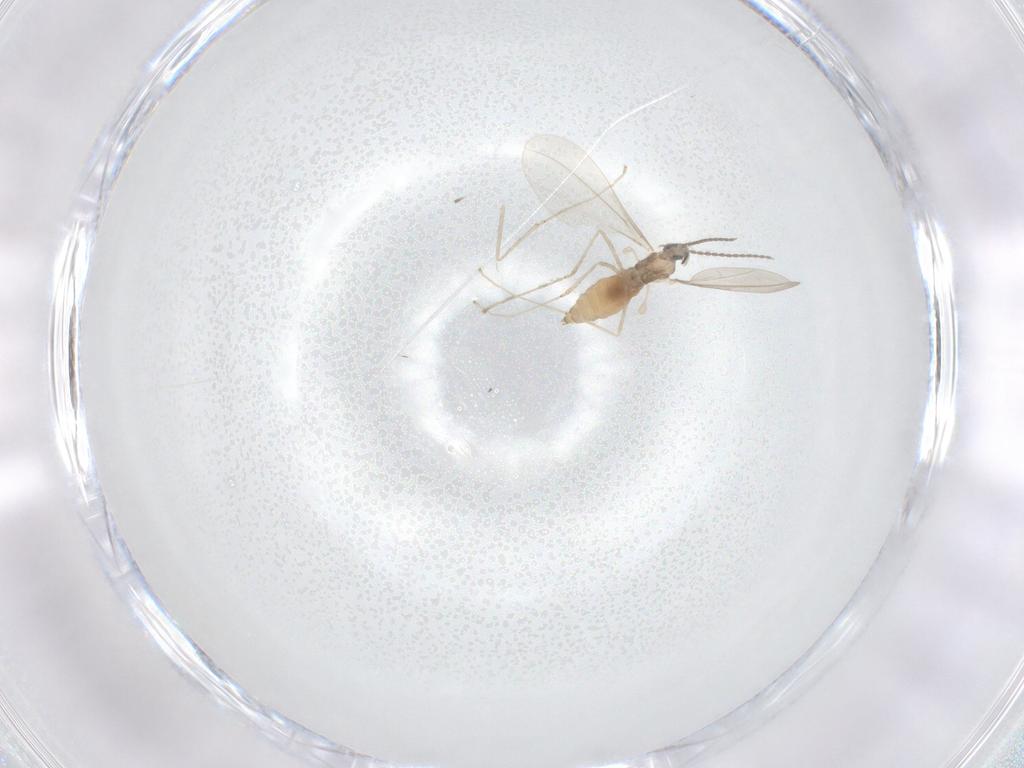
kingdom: Animalia
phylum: Arthropoda
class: Insecta
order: Diptera
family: Cecidomyiidae
